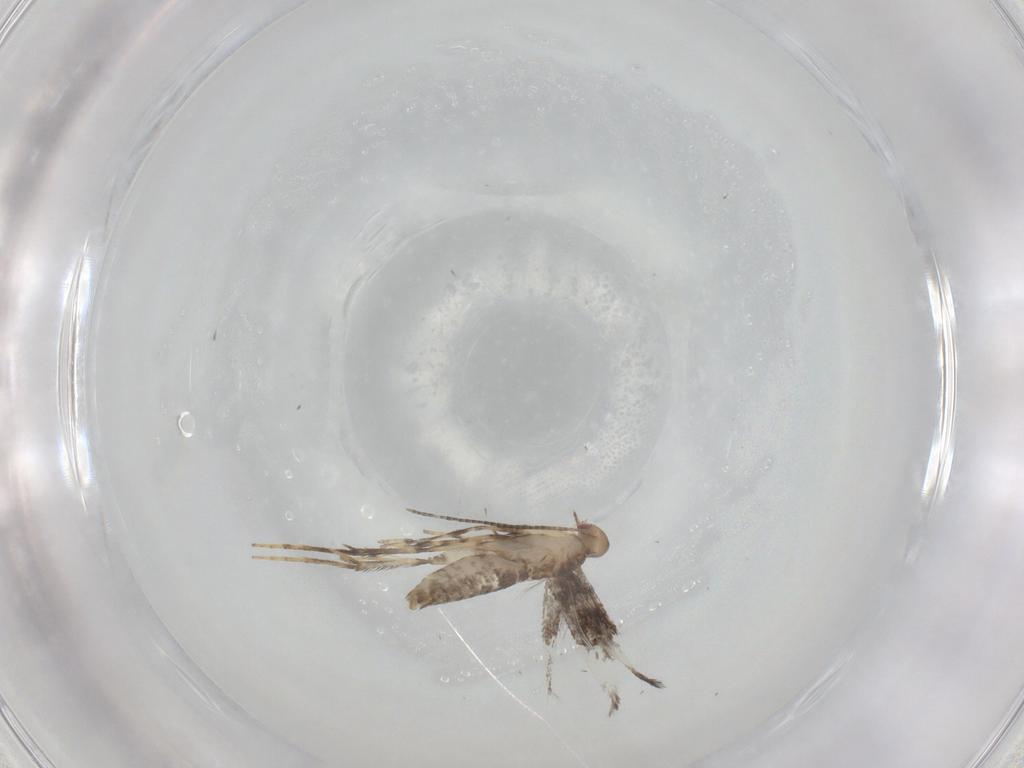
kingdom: Animalia
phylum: Arthropoda
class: Insecta
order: Lepidoptera
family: Gracillariidae
